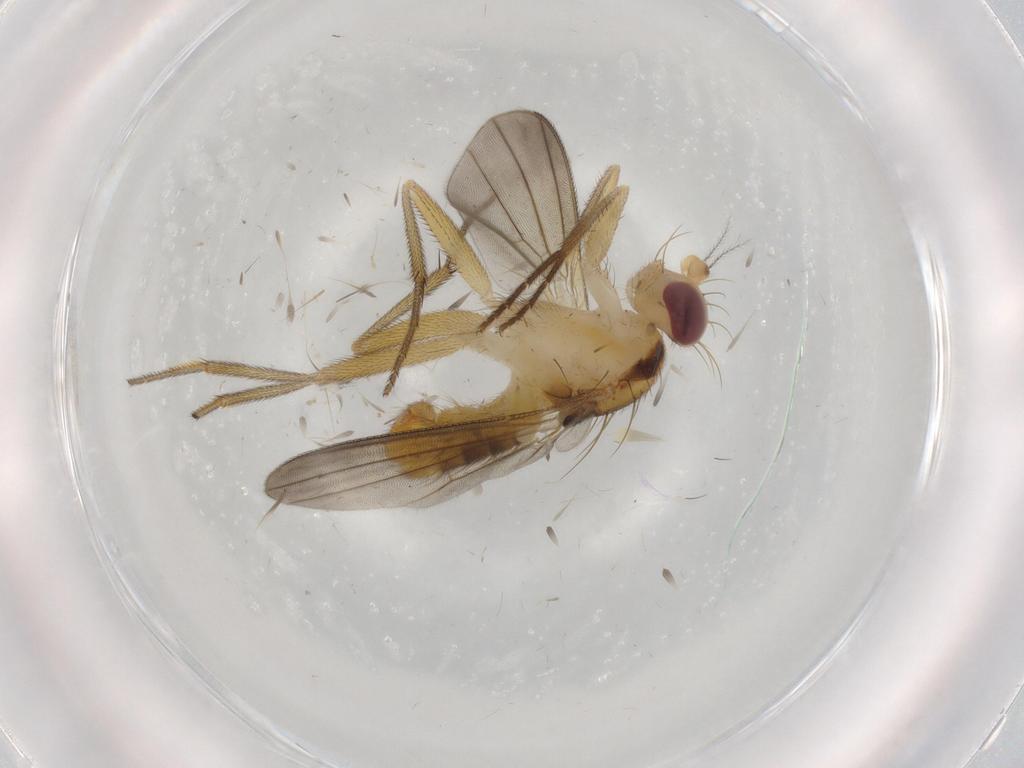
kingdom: Animalia
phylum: Arthropoda
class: Insecta
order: Diptera
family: Clusiidae
